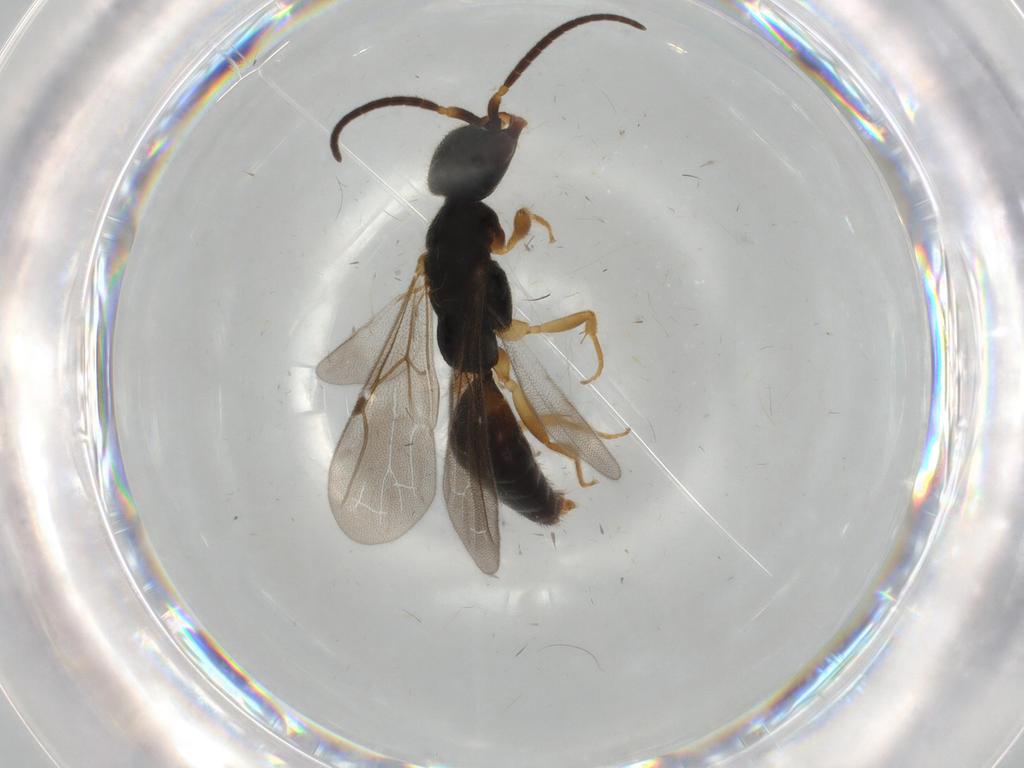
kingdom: Animalia
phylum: Arthropoda
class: Insecta
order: Hymenoptera
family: Bethylidae
